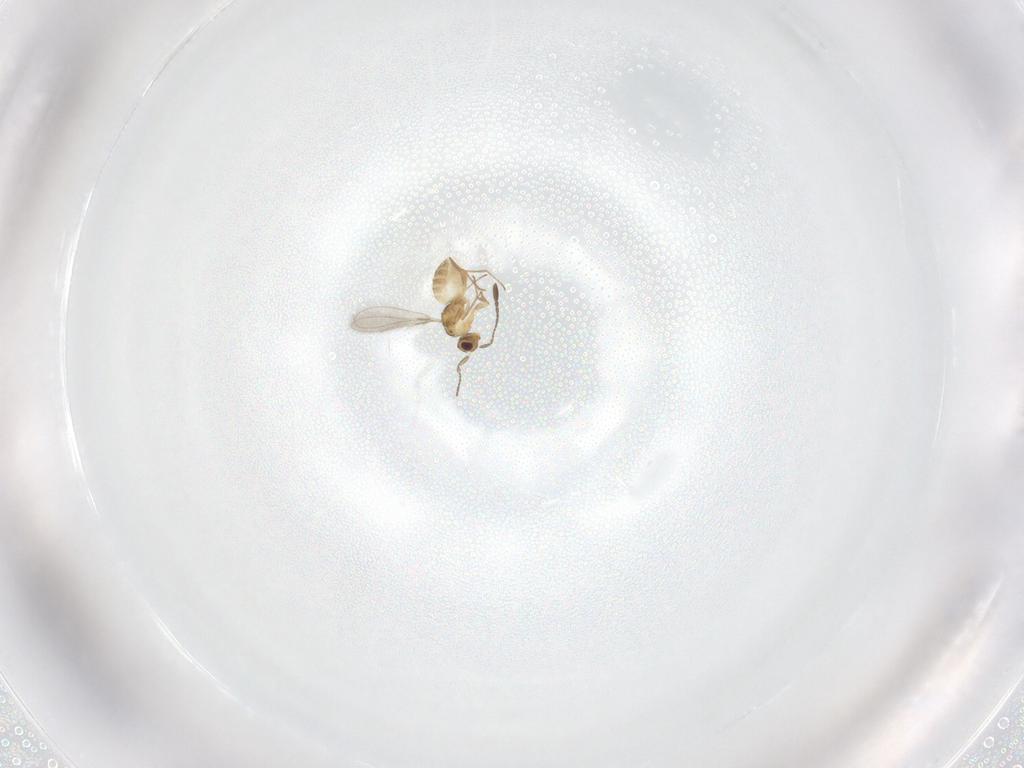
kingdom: Animalia
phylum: Arthropoda
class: Insecta
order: Hymenoptera
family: Mymaridae
